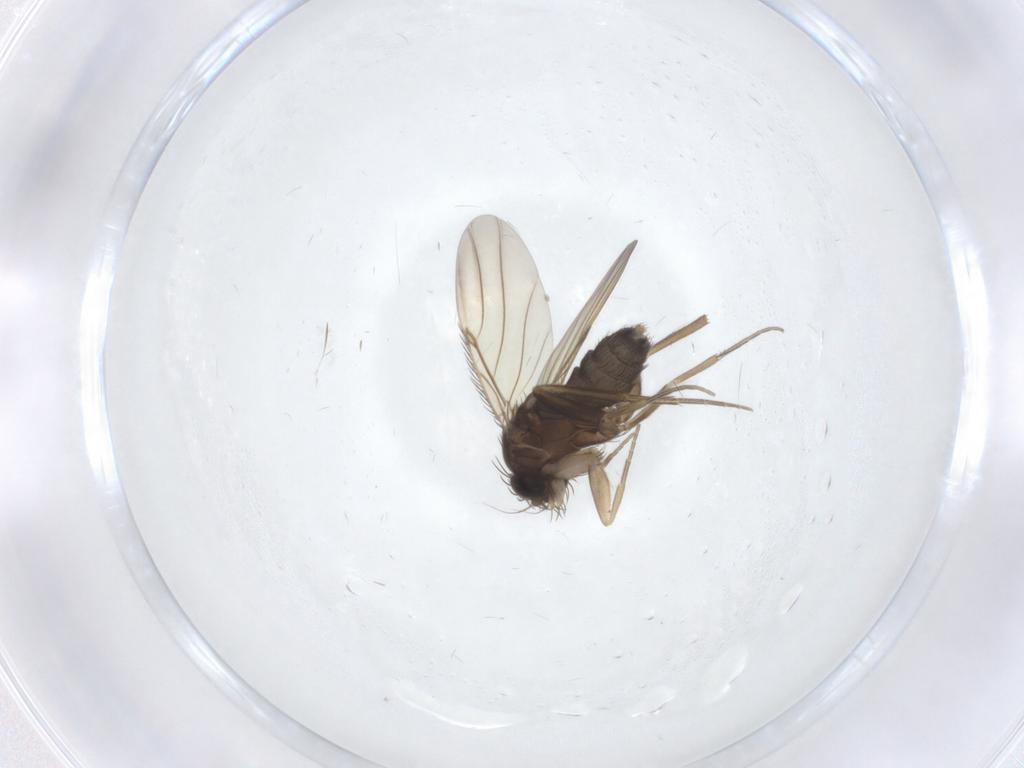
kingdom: Animalia
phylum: Arthropoda
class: Insecta
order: Diptera
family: Phoridae
